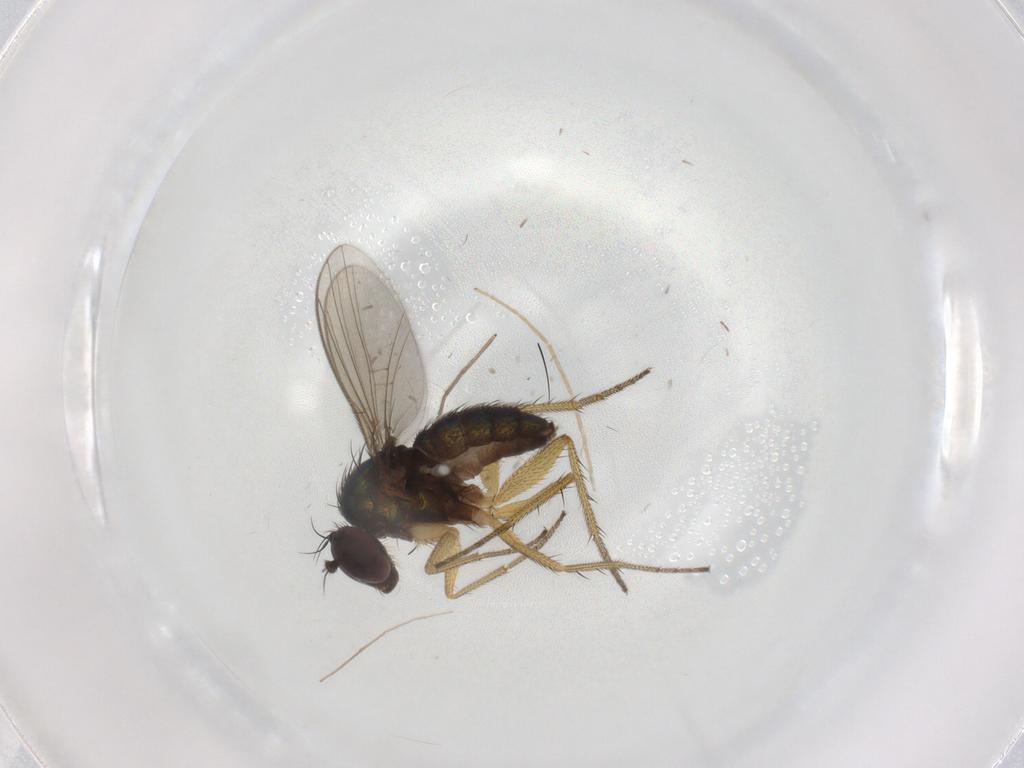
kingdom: Animalia
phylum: Arthropoda
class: Insecta
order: Diptera
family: Chironomidae
